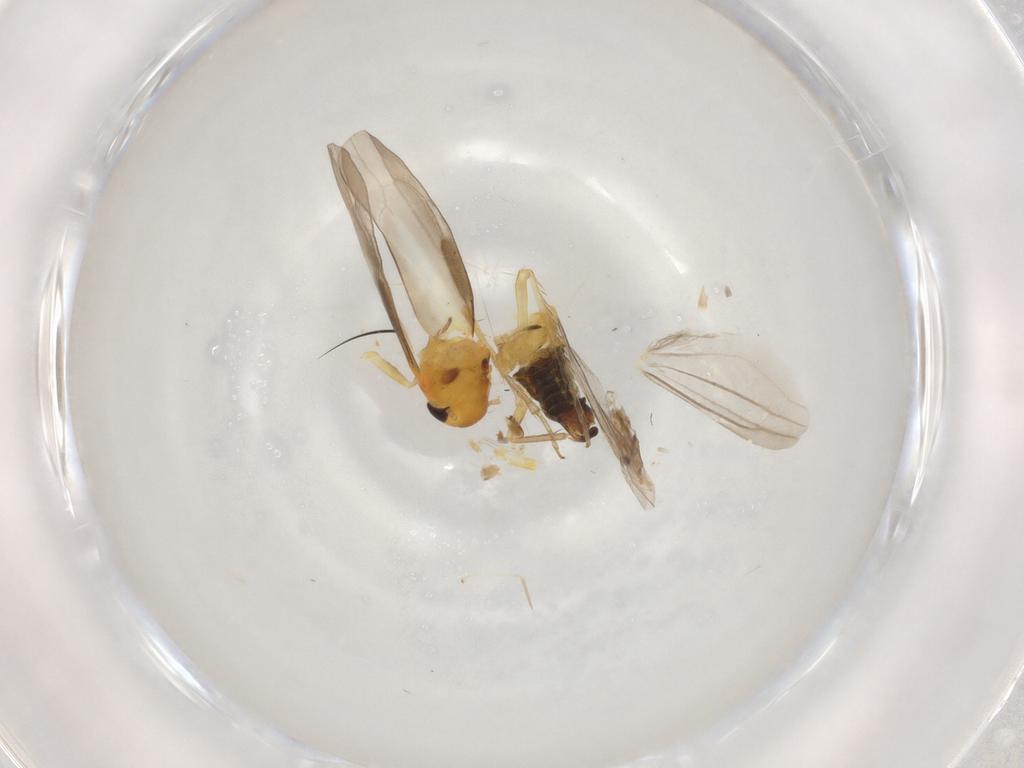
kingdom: Animalia
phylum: Arthropoda
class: Insecta
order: Hemiptera
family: Cicadellidae
